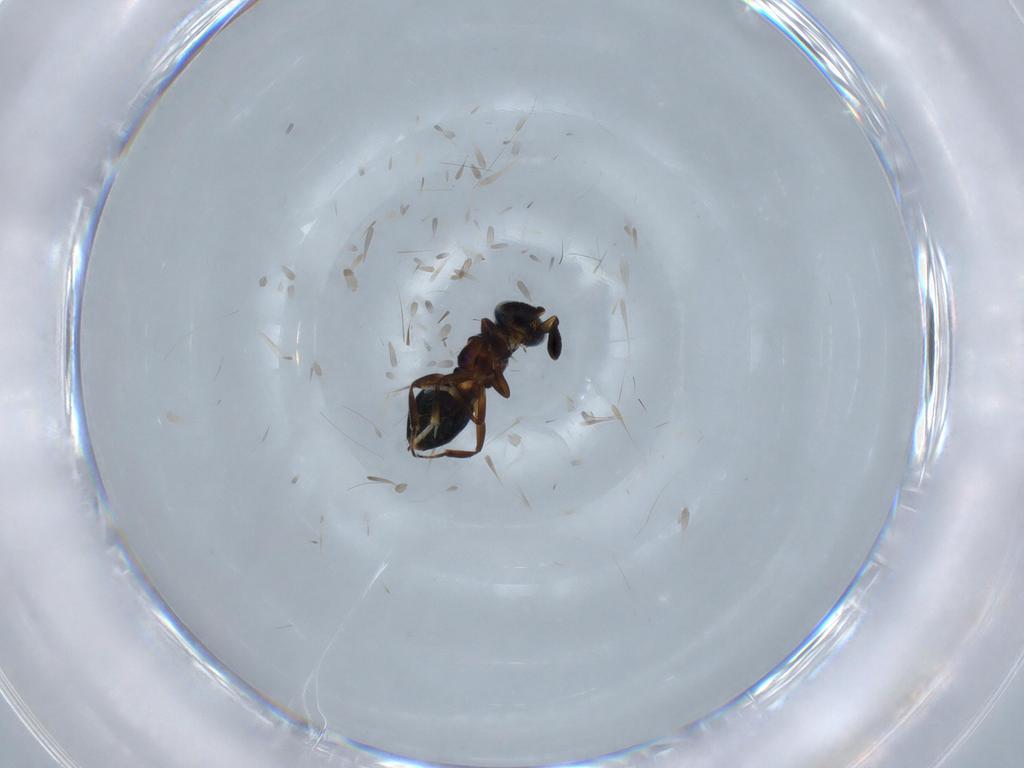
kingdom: Animalia
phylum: Arthropoda
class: Insecta
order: Hymenoptera
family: Encyrtidae
